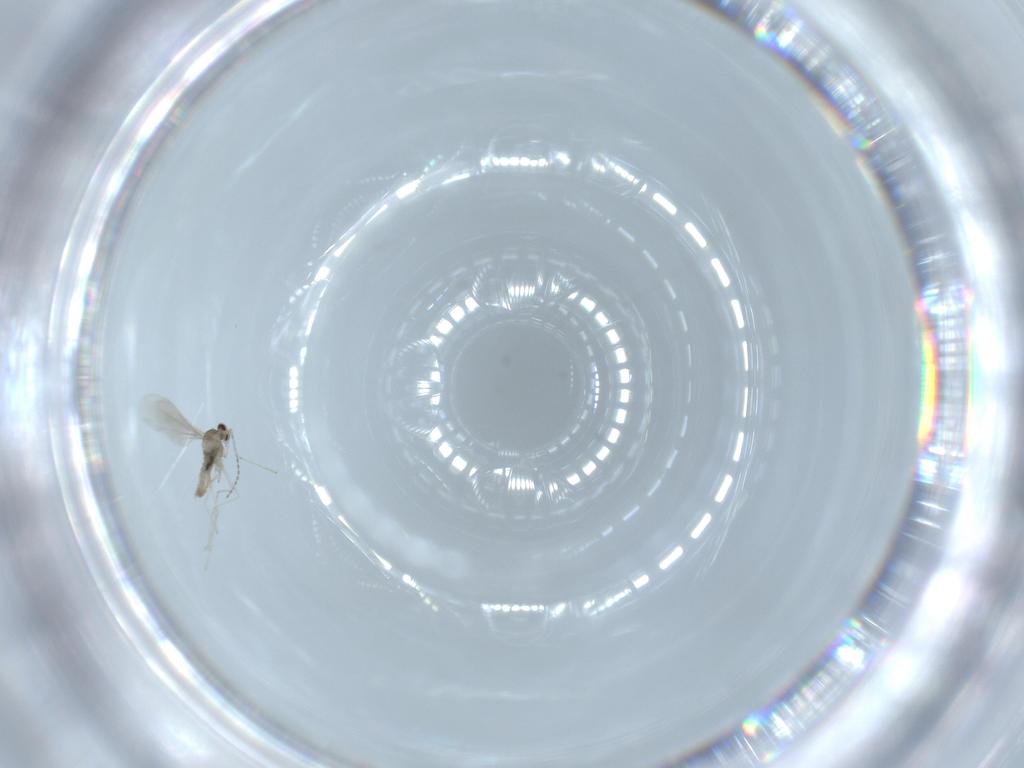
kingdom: Animalia
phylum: Arthropoda
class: Insecta
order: Diptera
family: Cecidomyiidae
